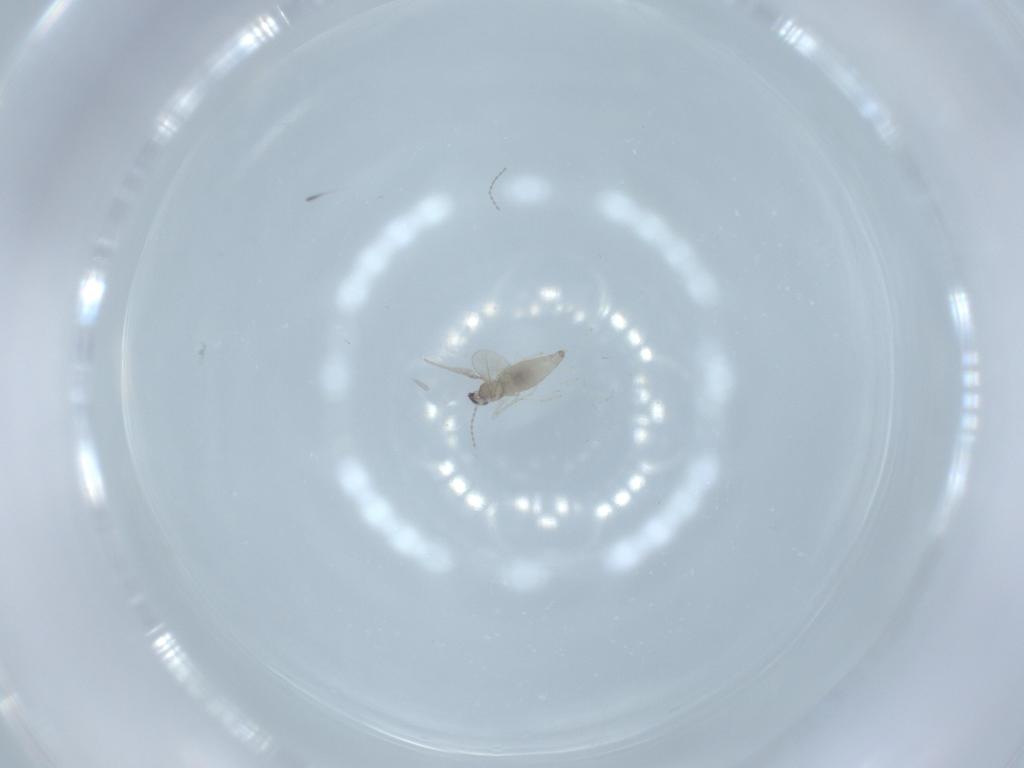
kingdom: Animalia
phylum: Arthropoda
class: Insecta
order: Diptera
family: Cecidomyiidae
